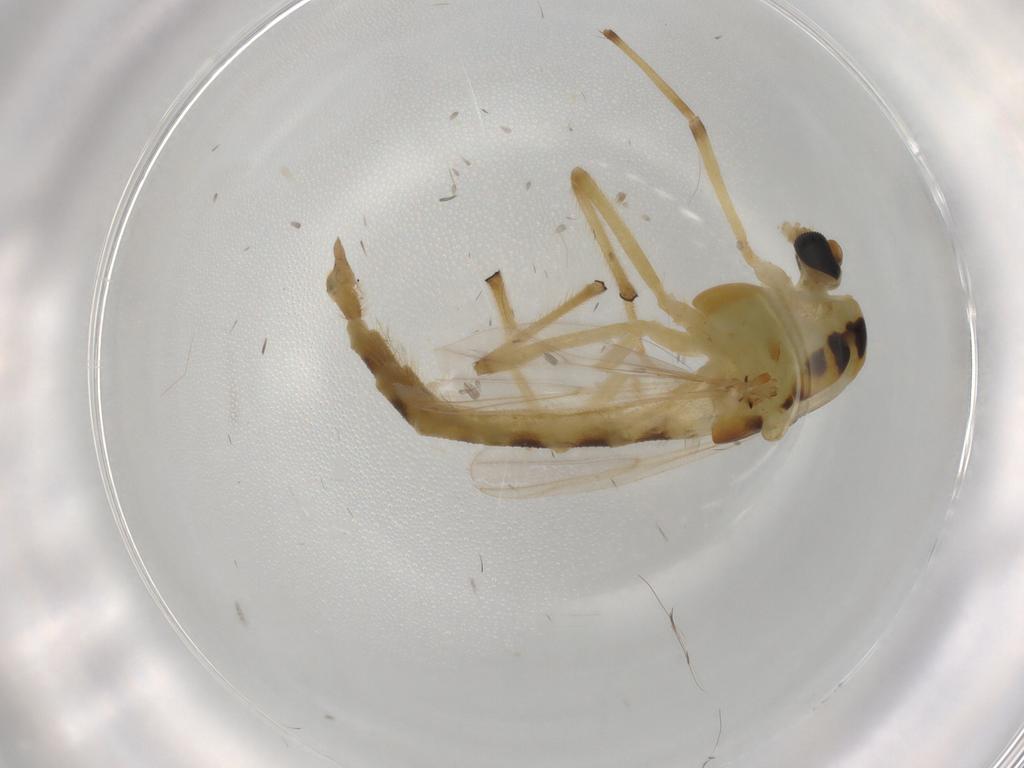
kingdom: Animalia
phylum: Arthropoda
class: Insecta
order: Diptera
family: Chironomidae
